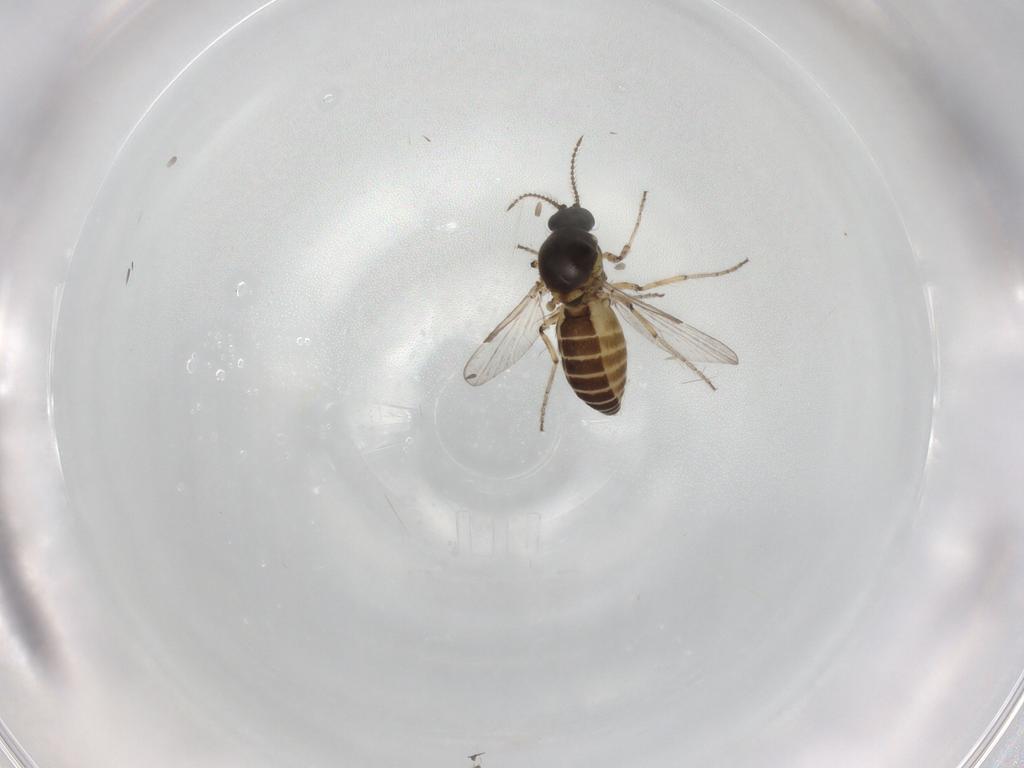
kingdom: Animalia
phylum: Arthropoda
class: Insecta
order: Diptera
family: Ceratopogonidae
